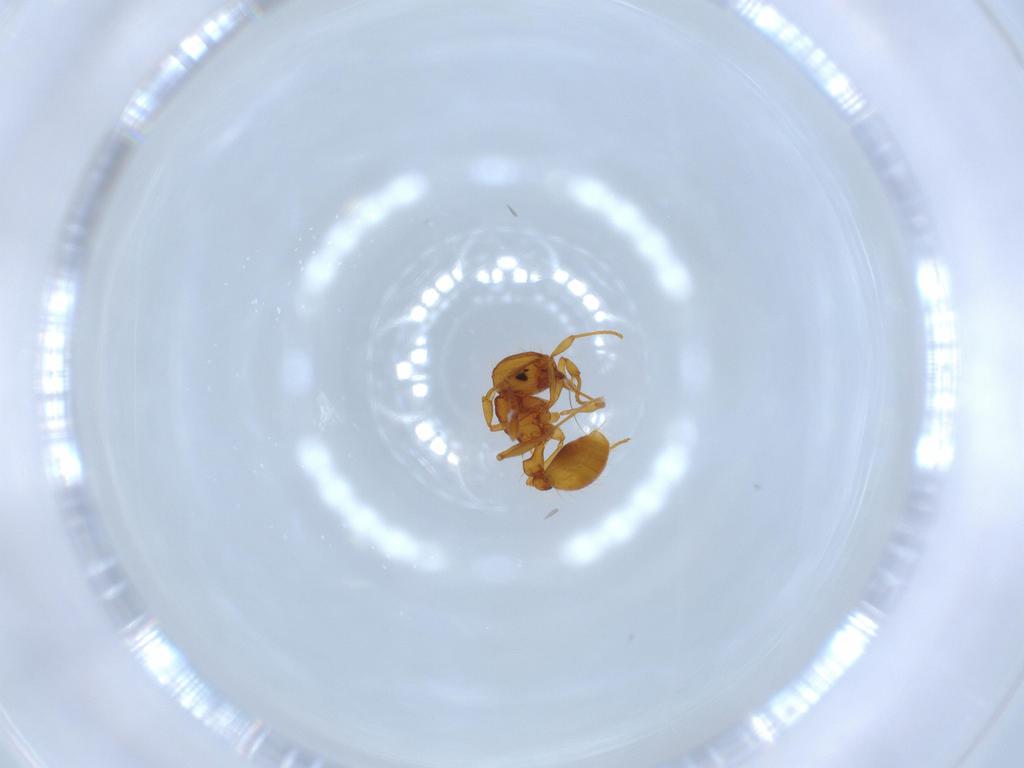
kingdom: Animalia
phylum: Arthropoda
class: Insecta
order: Hymenoptera
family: Formicidae
